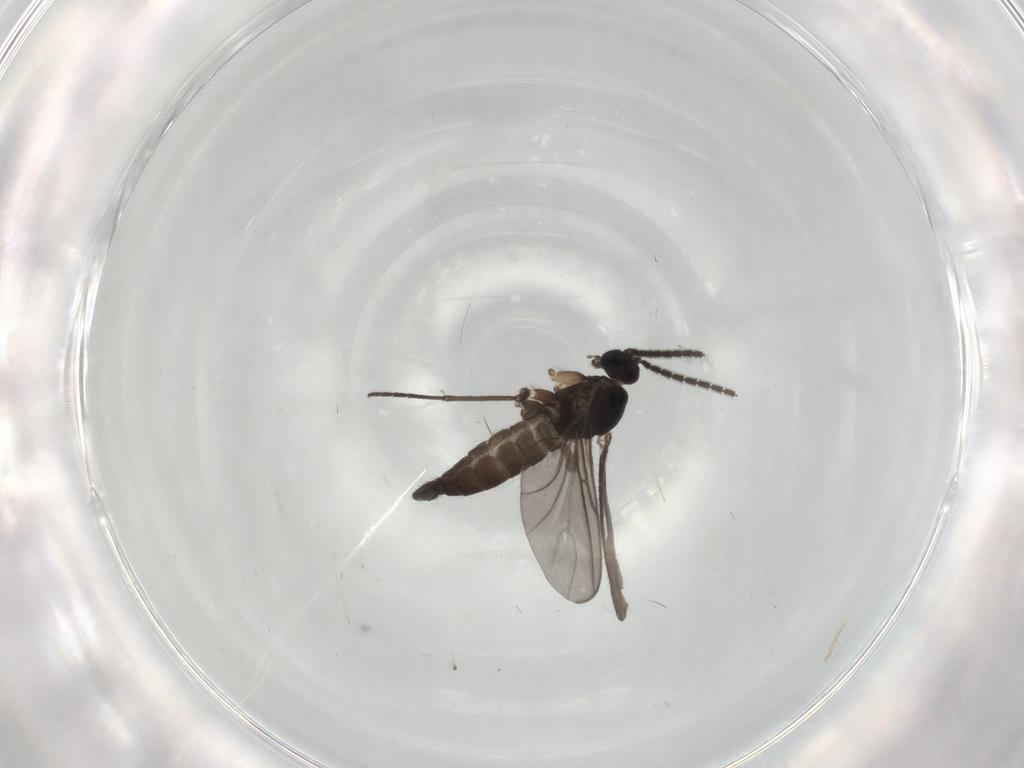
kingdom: Animalia
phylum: Arthropoda
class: Insecta
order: Diptera
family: Sciaridae
